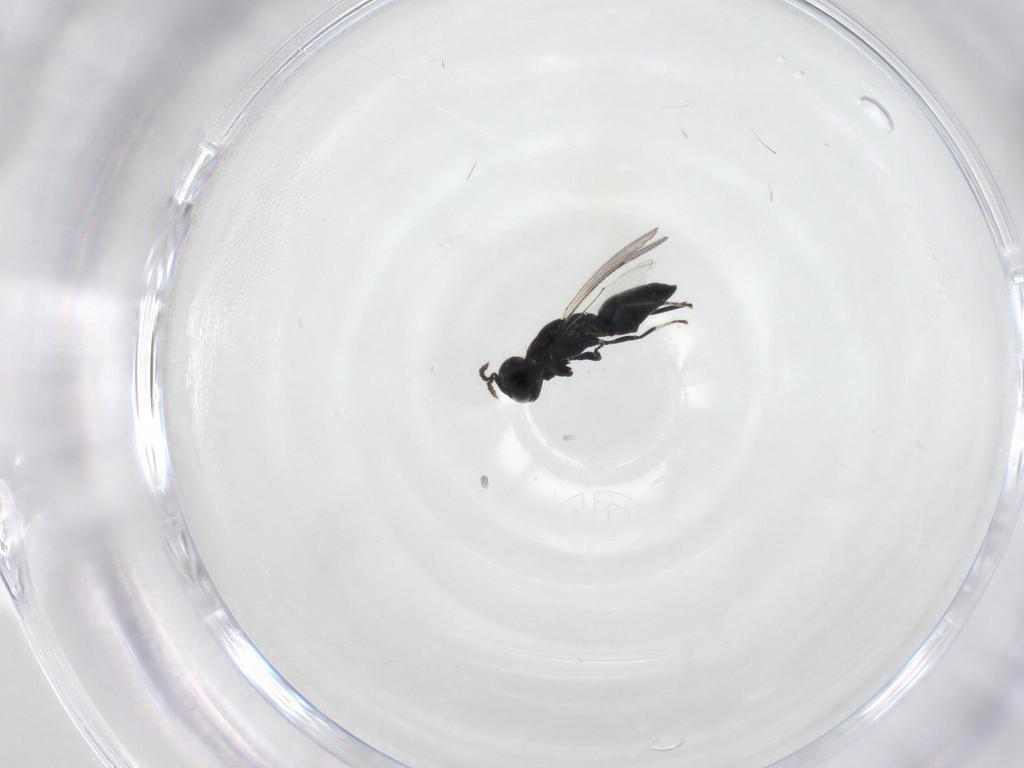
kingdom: Animalia
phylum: Arthropoda
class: Insecta
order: Hymenoptera
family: Eulophidae
